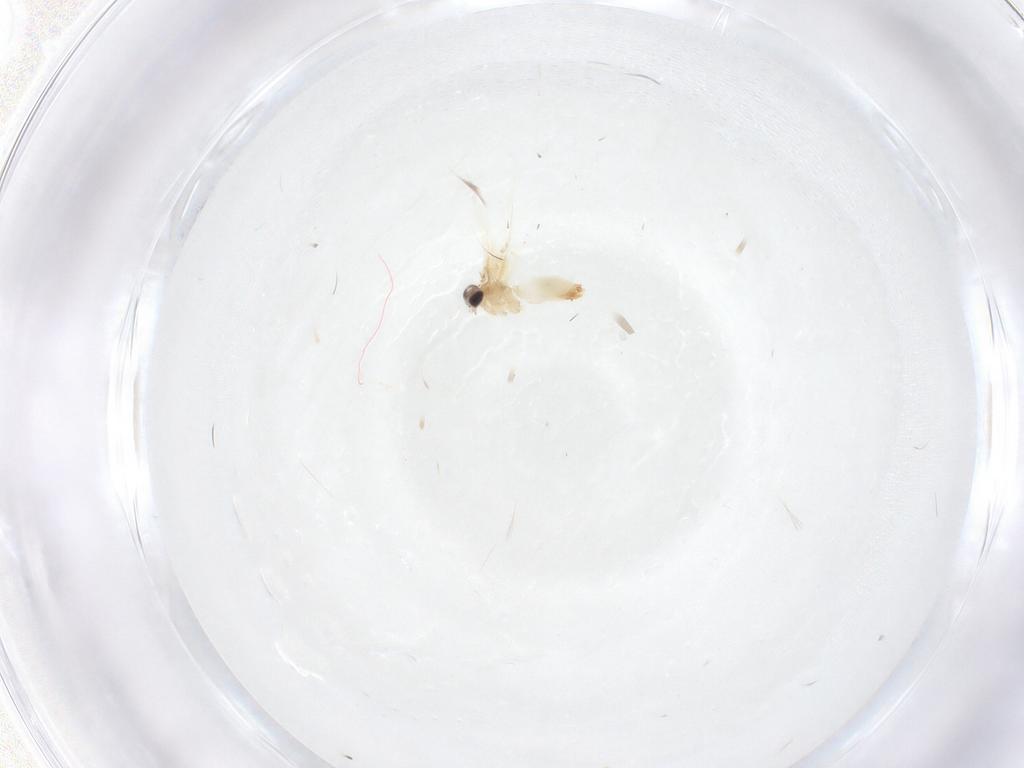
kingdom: Animalia
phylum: Arthropoda
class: Insecta
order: Lepidoptera
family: Crambidae
